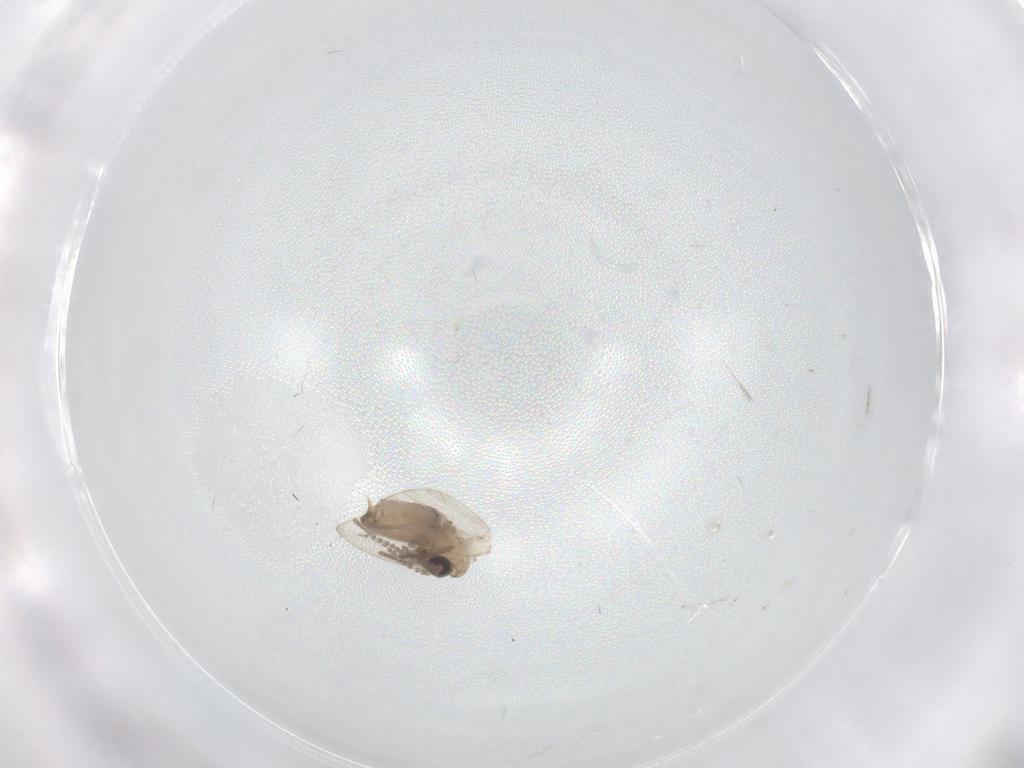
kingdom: Animalia
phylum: Arthropoda
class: Insecta
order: Diptera
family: Psychodidae
